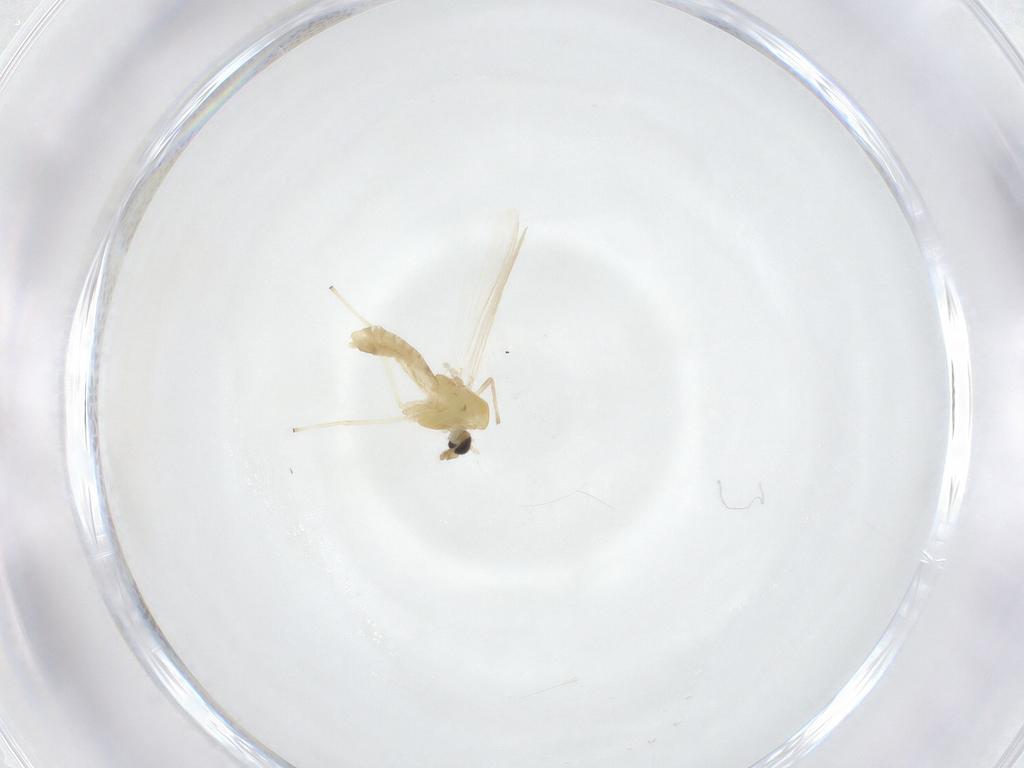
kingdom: Animalia
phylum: Arthropoda
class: Insecta
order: Diptera
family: Chironomidae
